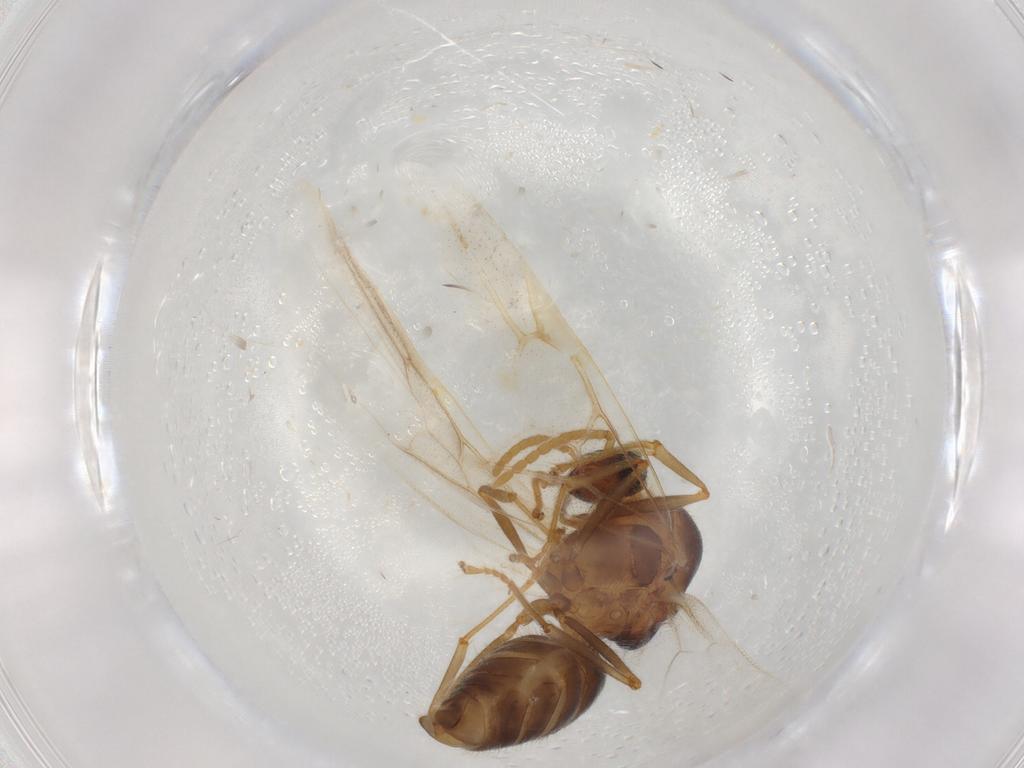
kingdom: Animalia
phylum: Arthropoda
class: Insecta
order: Hymenoptera
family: Formicidae
